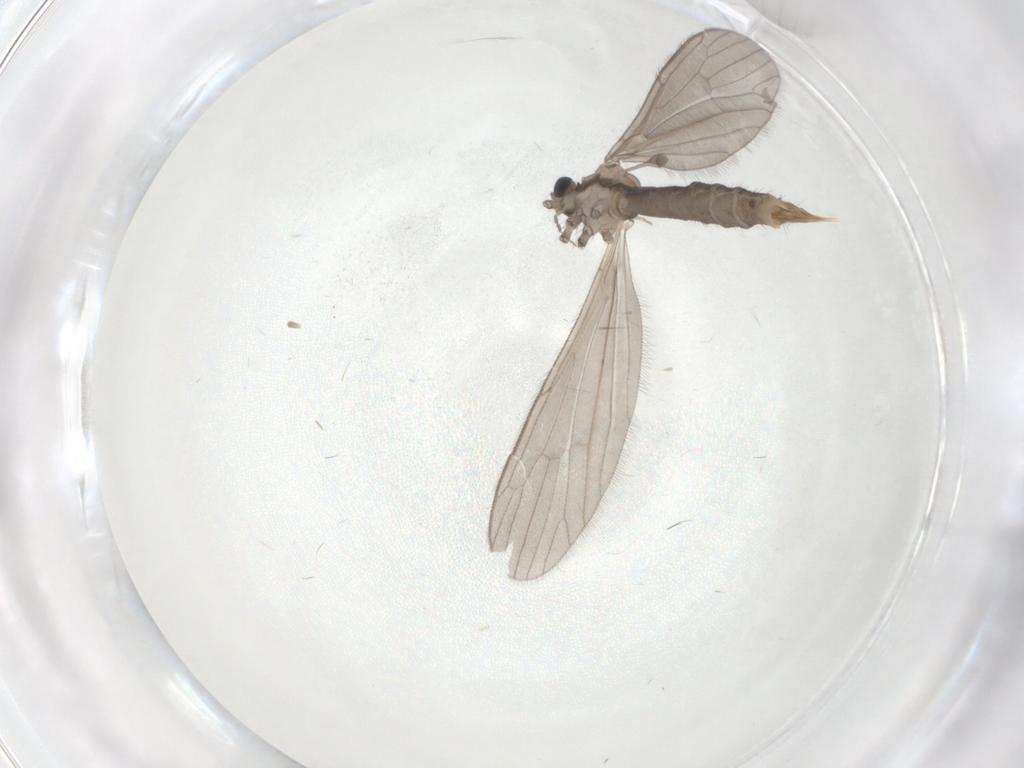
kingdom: Animalia
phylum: Arthropoda
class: Insecta
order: Diptera
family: Limoniidae
